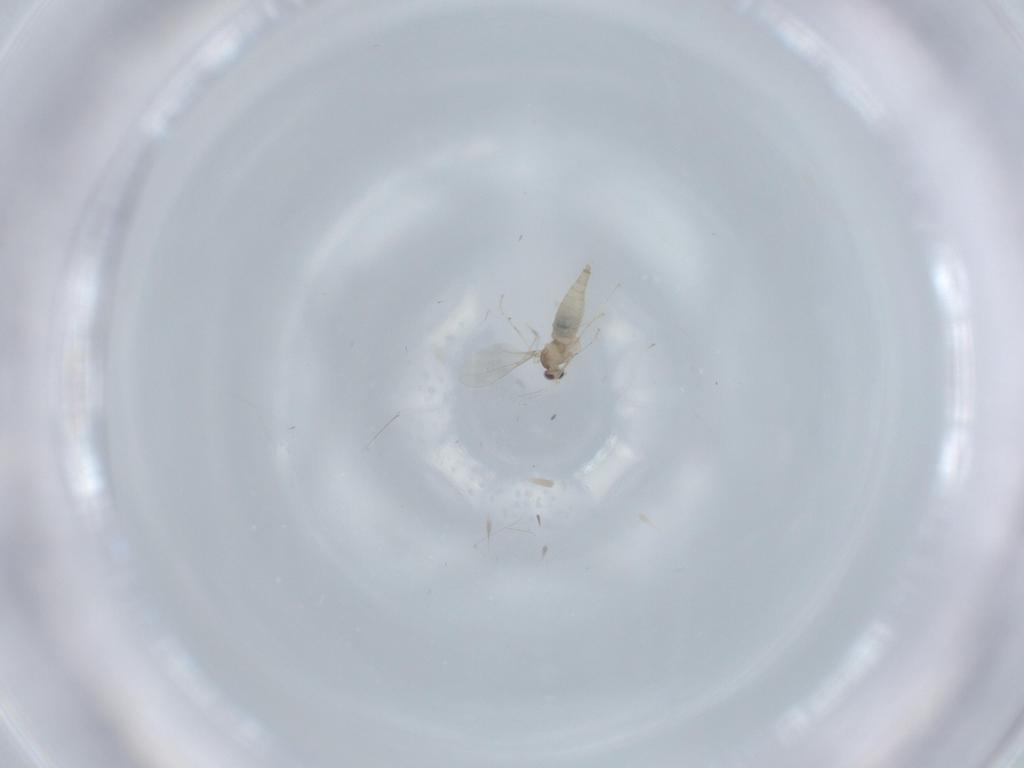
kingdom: Animalia
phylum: Arthropoda
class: Insecta
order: Diptera
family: Cecidomyiidae
